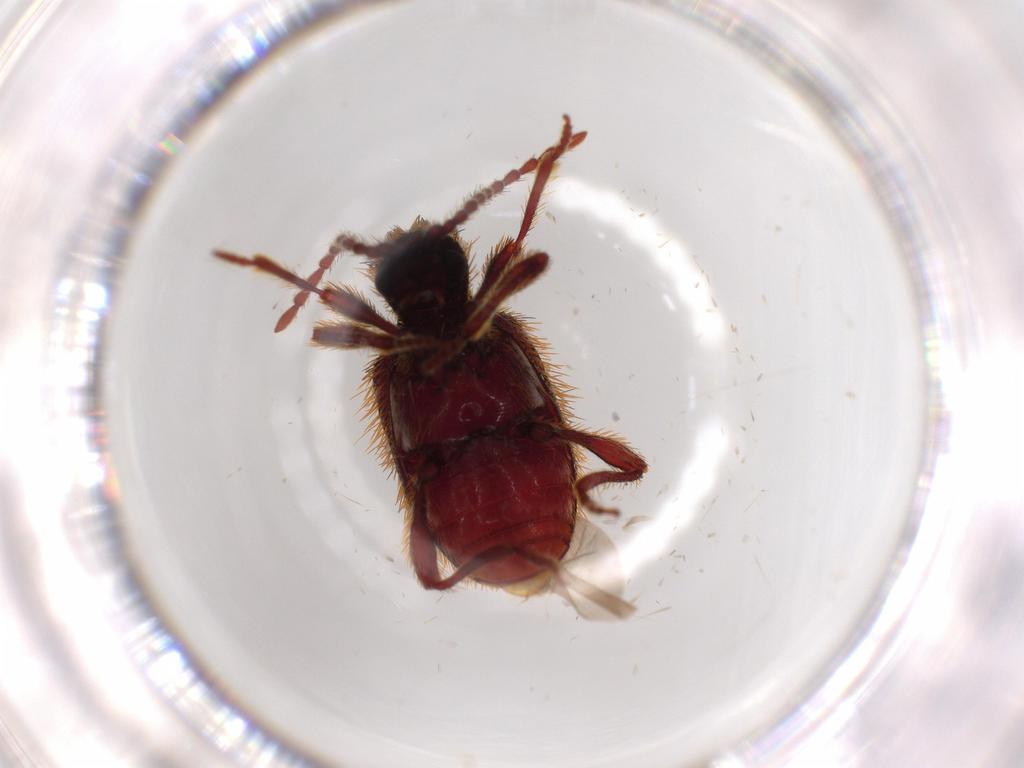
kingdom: Animalia
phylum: Arthropoda
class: Insecta
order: Coleoptera
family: Ptinidae
